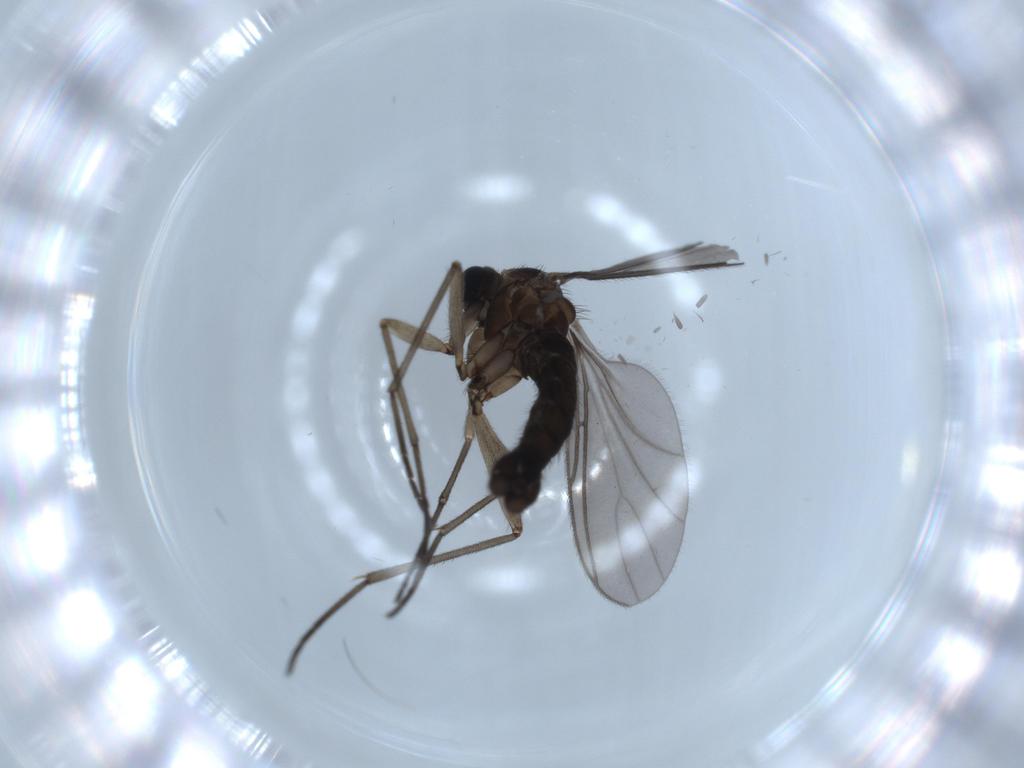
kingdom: Animalia
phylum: Arthropoda
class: Insecta
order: Diptera
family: Sciaridae
